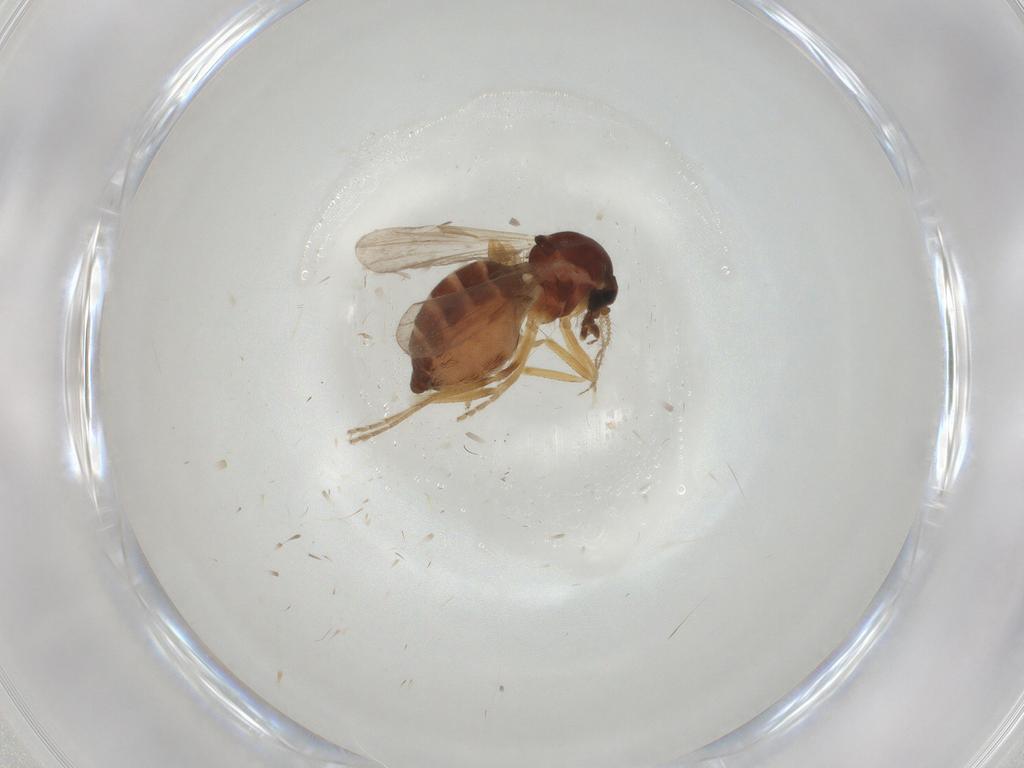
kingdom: Animalia
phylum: Arthropoda
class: Insecta
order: Diptera
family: Ceratopogonidae
